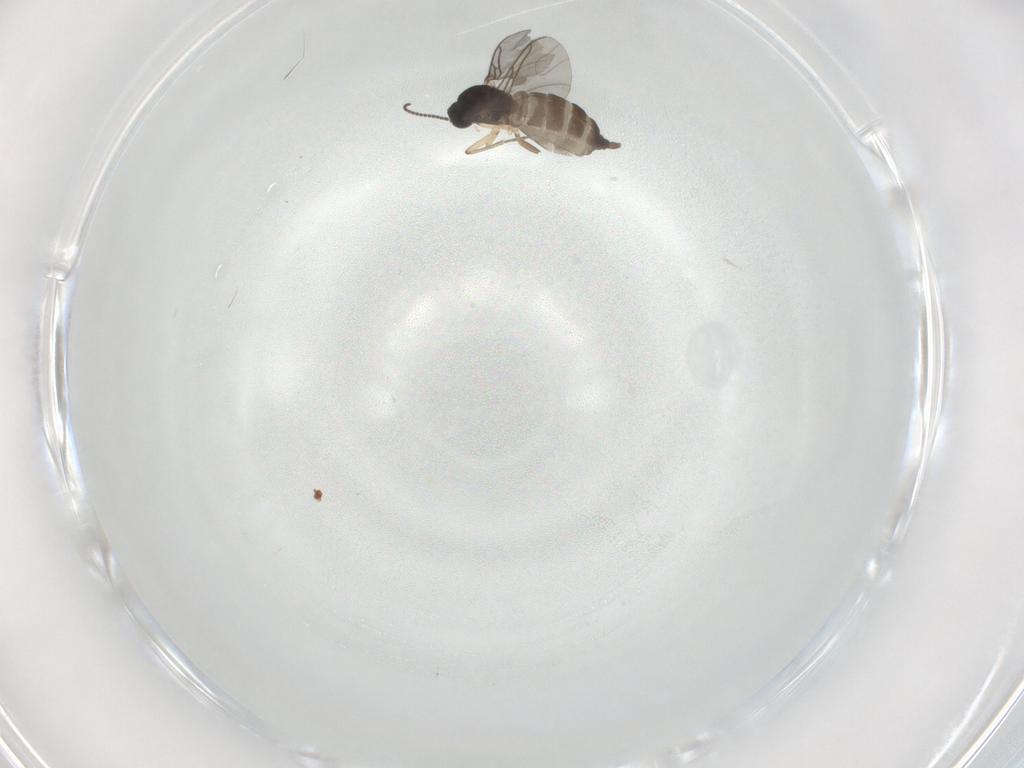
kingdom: Animalia
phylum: Arthropoda
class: Insecta
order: Diptera
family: Sciaridae
